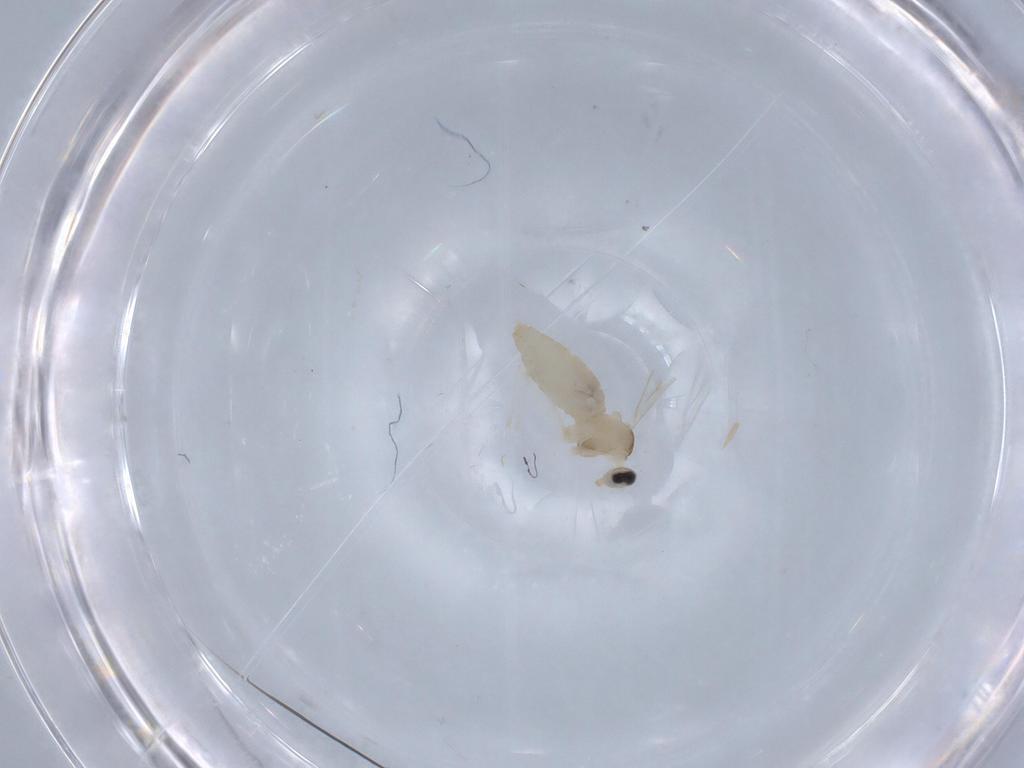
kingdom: Animalia
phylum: Arthropoda
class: Insecta
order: Diptera
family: Cecidomyiidae
